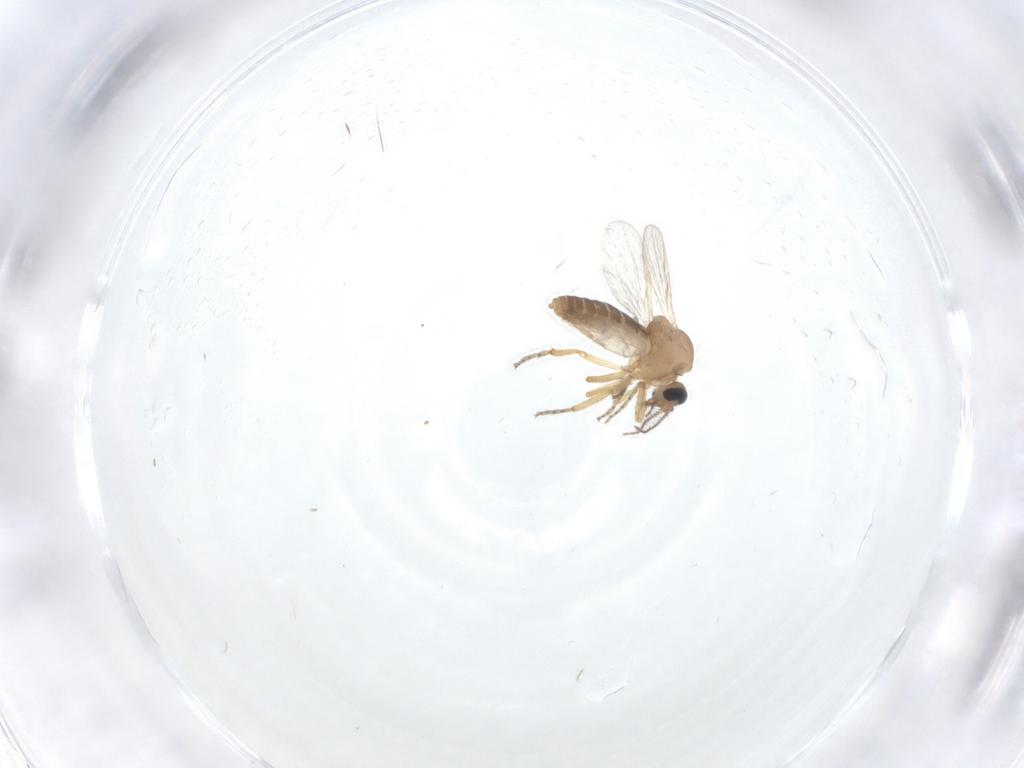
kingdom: Animalia
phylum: Arthropoda
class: Insecta
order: Diptera
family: Ceratopogonidae
